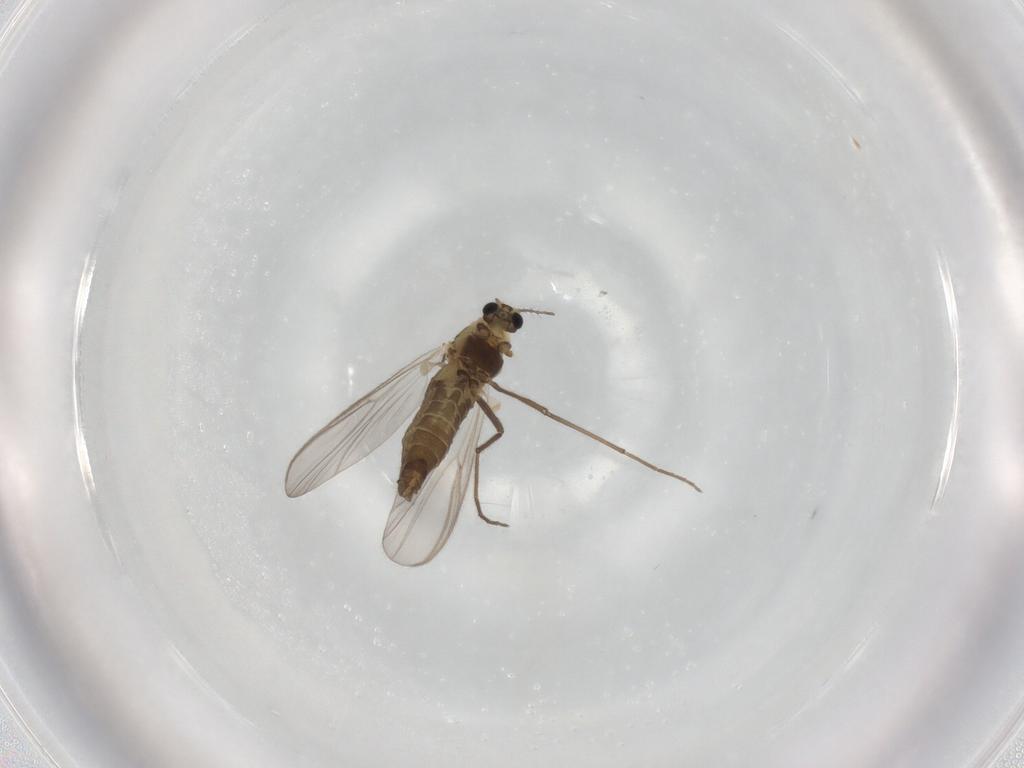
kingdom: Animalia
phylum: Arthropoda
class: Insecta
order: Diptera
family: Chironomidae
